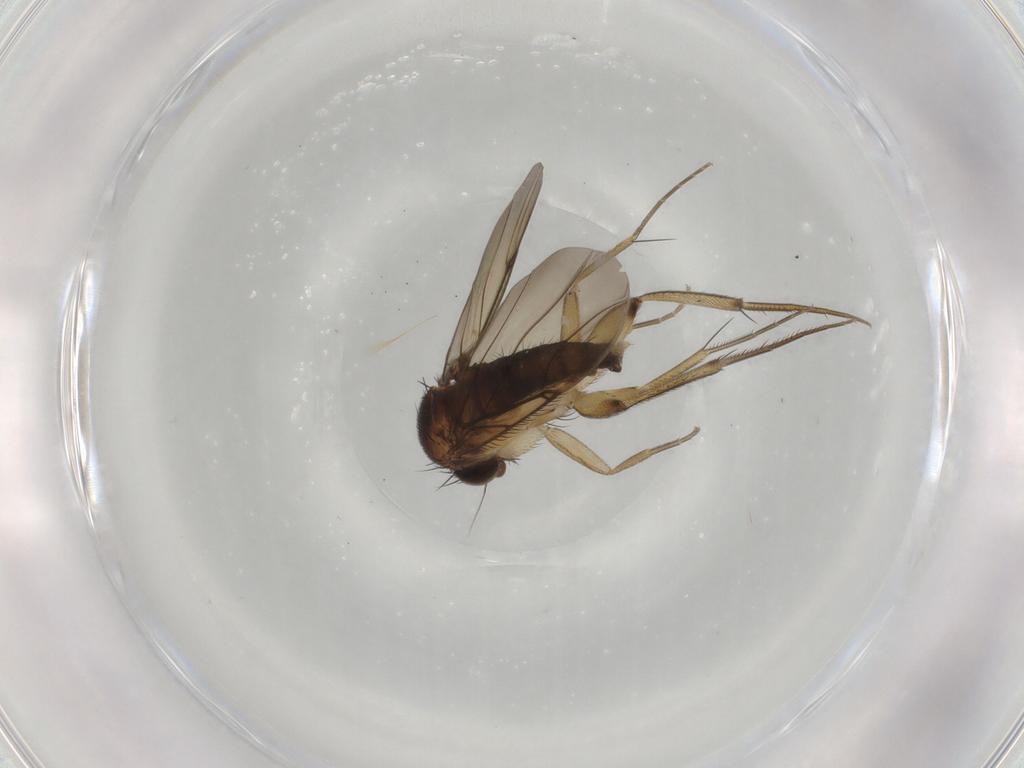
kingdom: Animalia
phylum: Arthropoda
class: Insecta
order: Diptera
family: Phoridae
